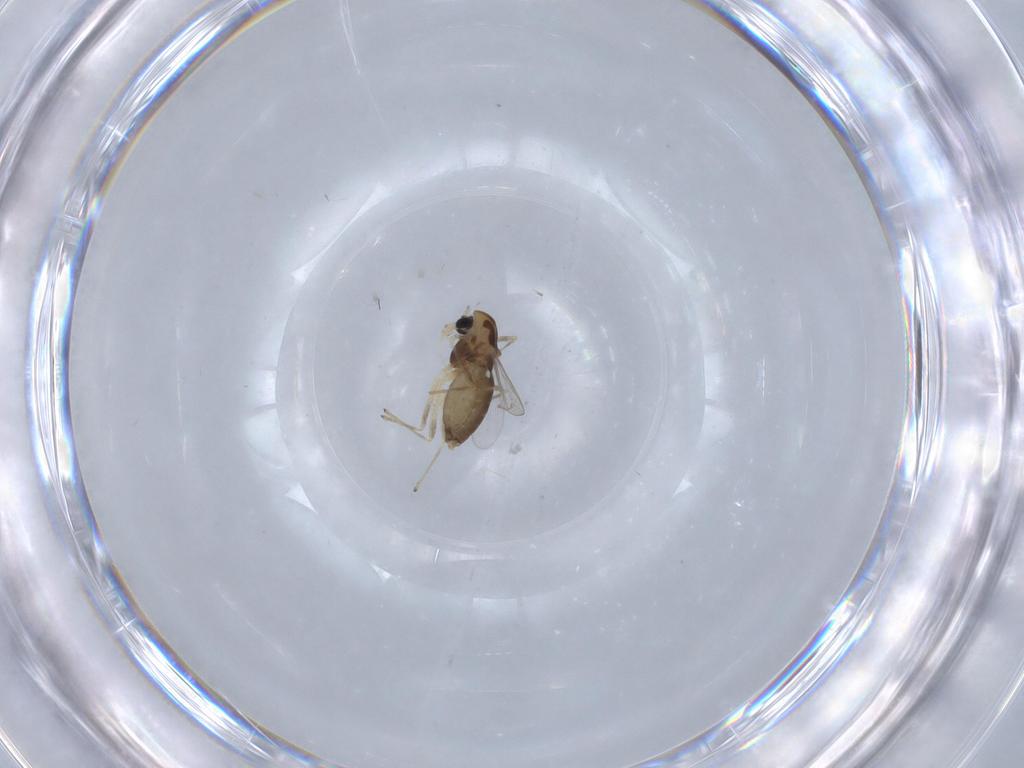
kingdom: Animalia
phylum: Arthropoda
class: Insecta
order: Diptera
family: Chironomidae
